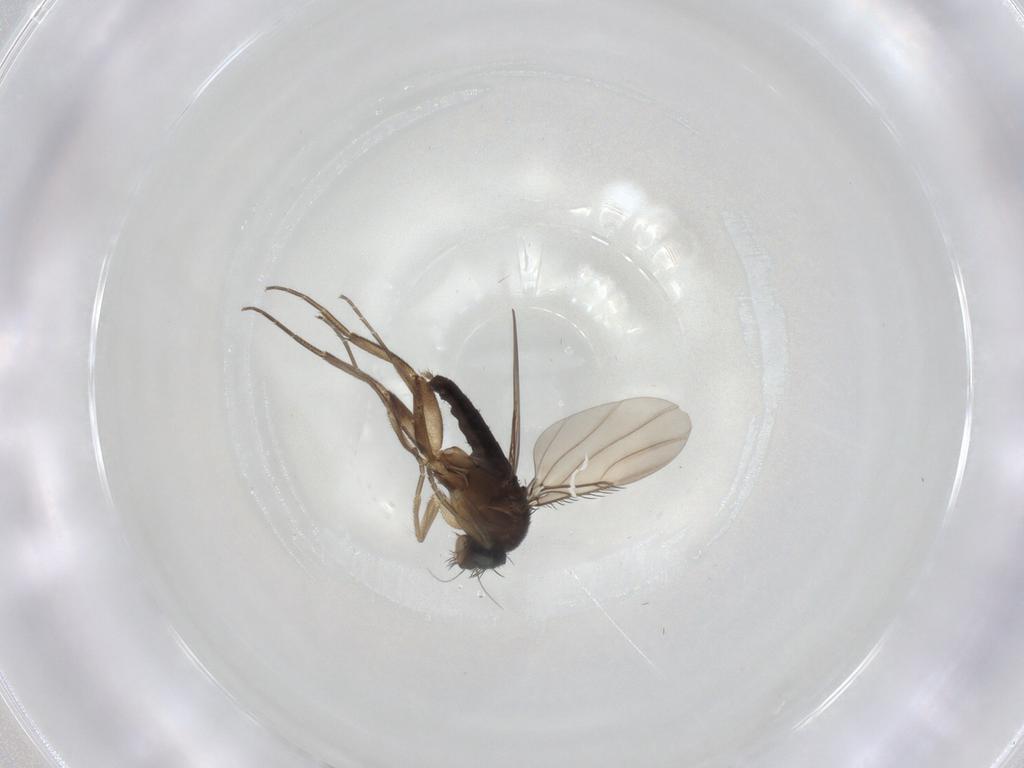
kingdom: Animalia
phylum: Arthropoda
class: Insecta
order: Diptera
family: Phoridae
